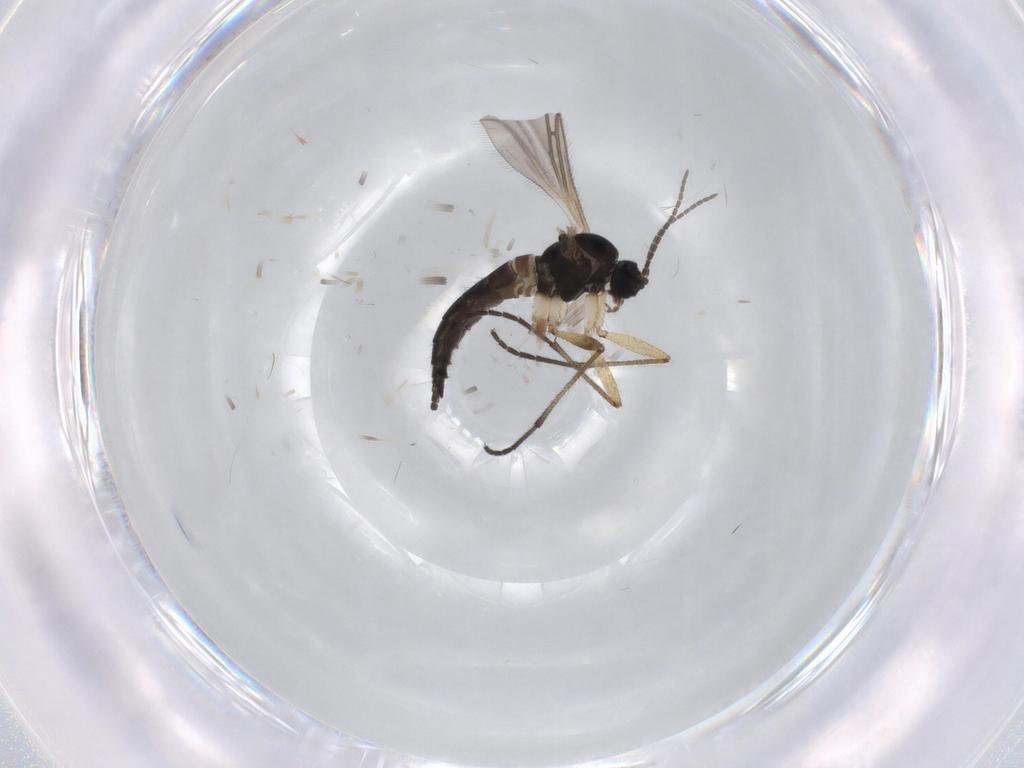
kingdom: Animalia
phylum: Arthropoda
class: Insecta
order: Diptera
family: Sciaridae
